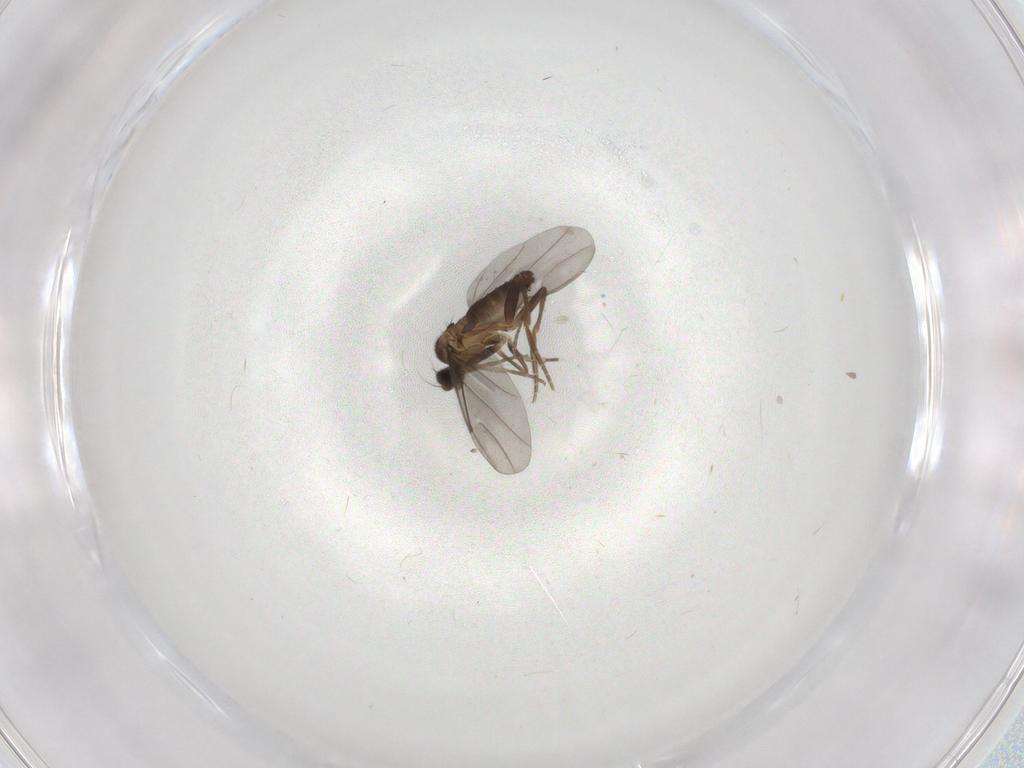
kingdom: Animalia
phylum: Arthropoda
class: Insecta
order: Diptera
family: Phoridae
